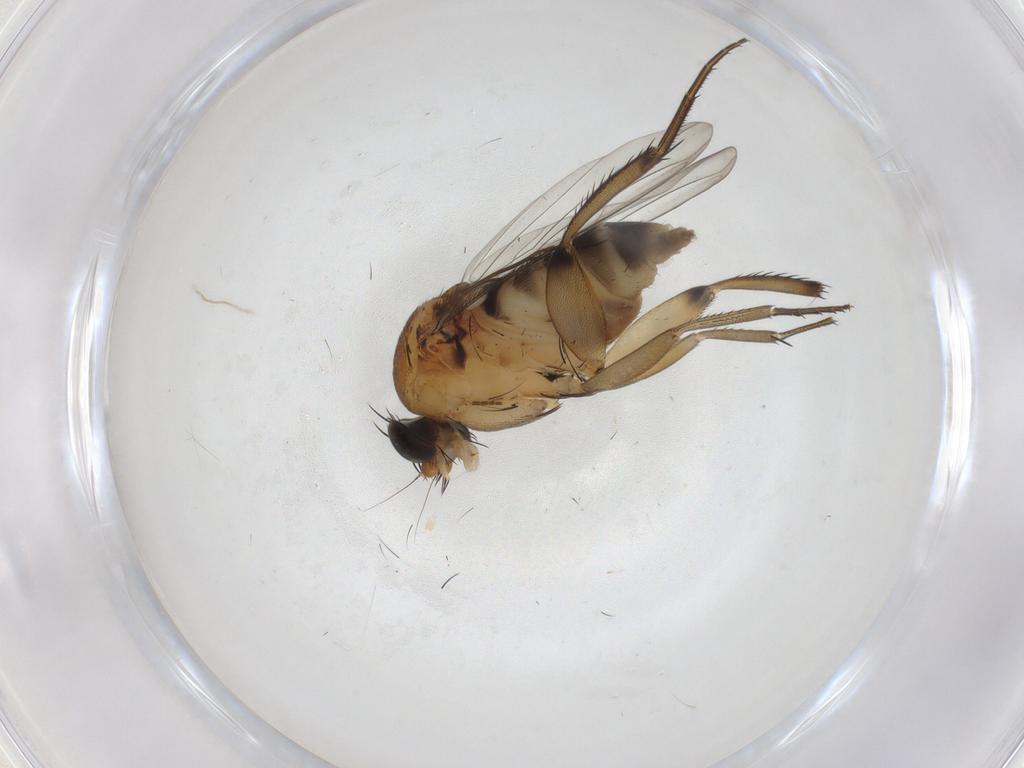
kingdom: Animalia
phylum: Arthropoda
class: Insecta
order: Diptera
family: Phoridae
